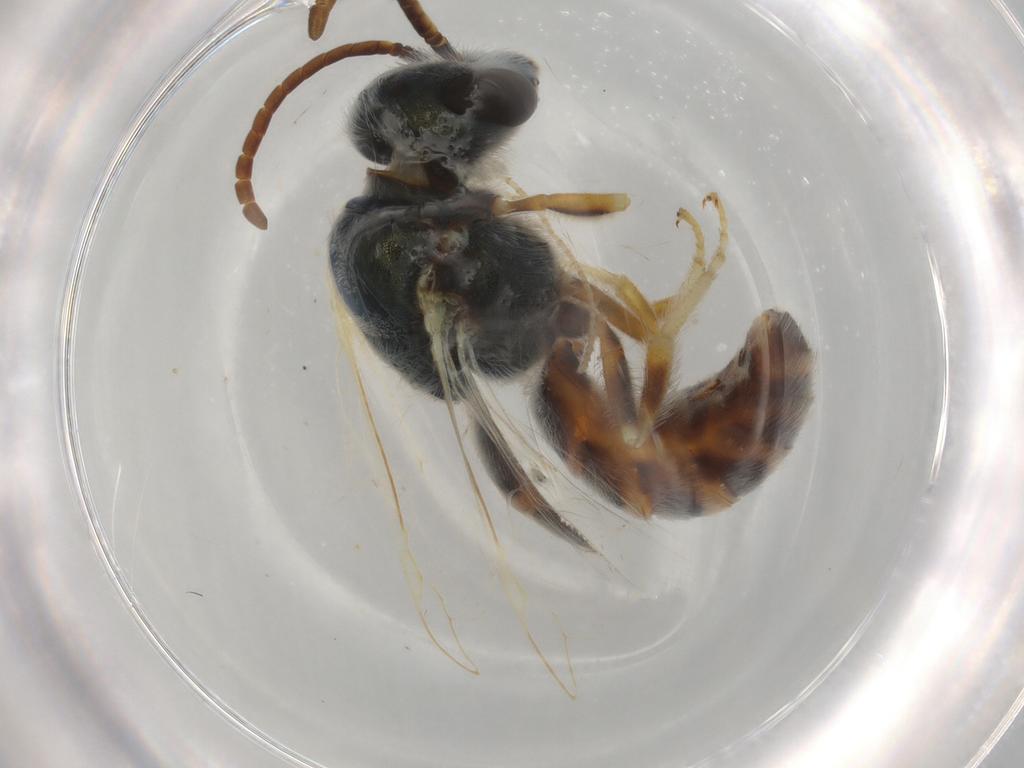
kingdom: Animalia
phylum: Arthropoda
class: Insecta
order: Hymenoptera
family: Halictidae
